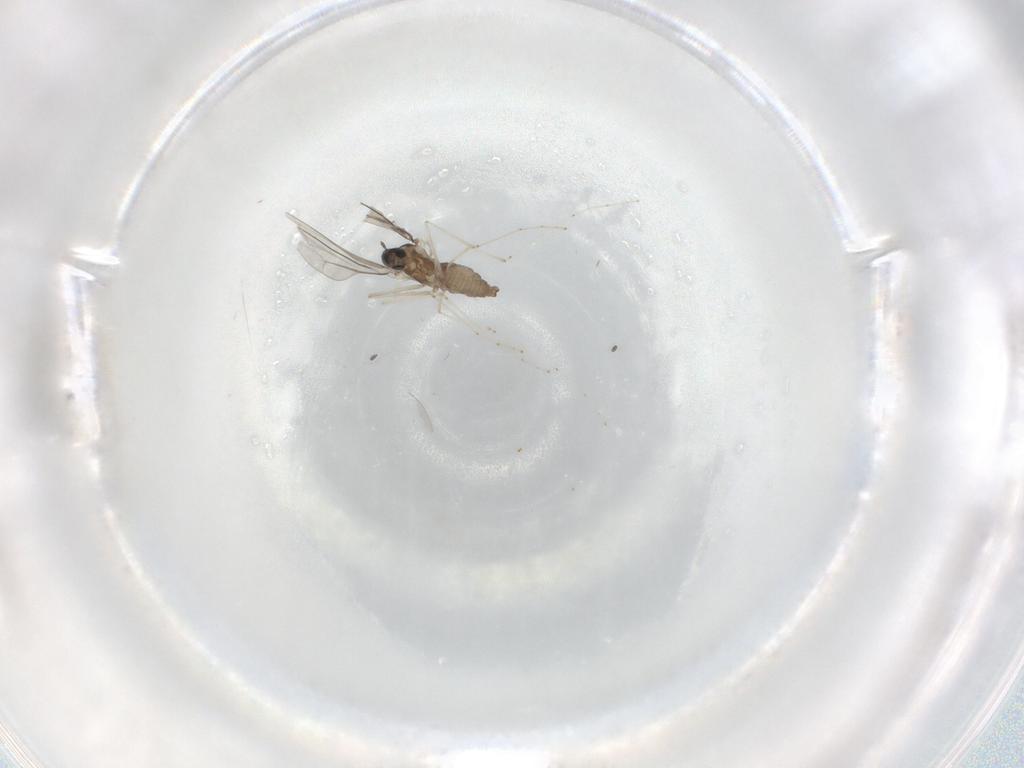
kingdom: Animalia
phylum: Arthropoda
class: Insecta
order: Diptera
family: Cecidomyiidae
